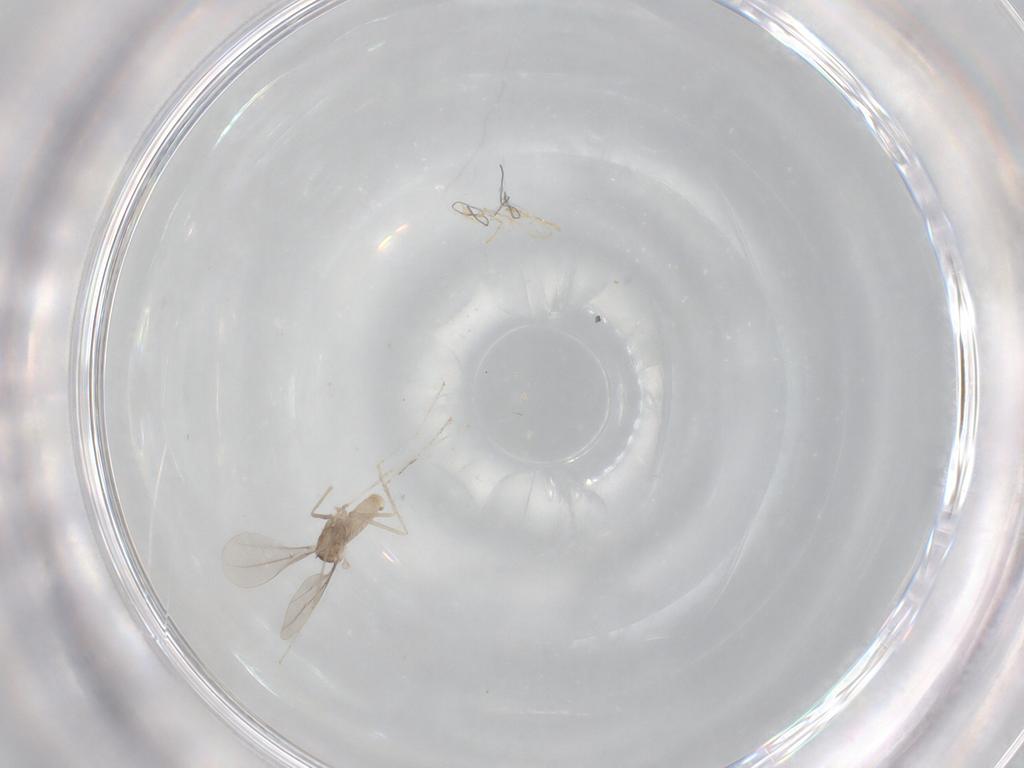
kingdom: Animalia
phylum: Arthropoda
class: Insecta
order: Diptera
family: Cecidomyiidae
